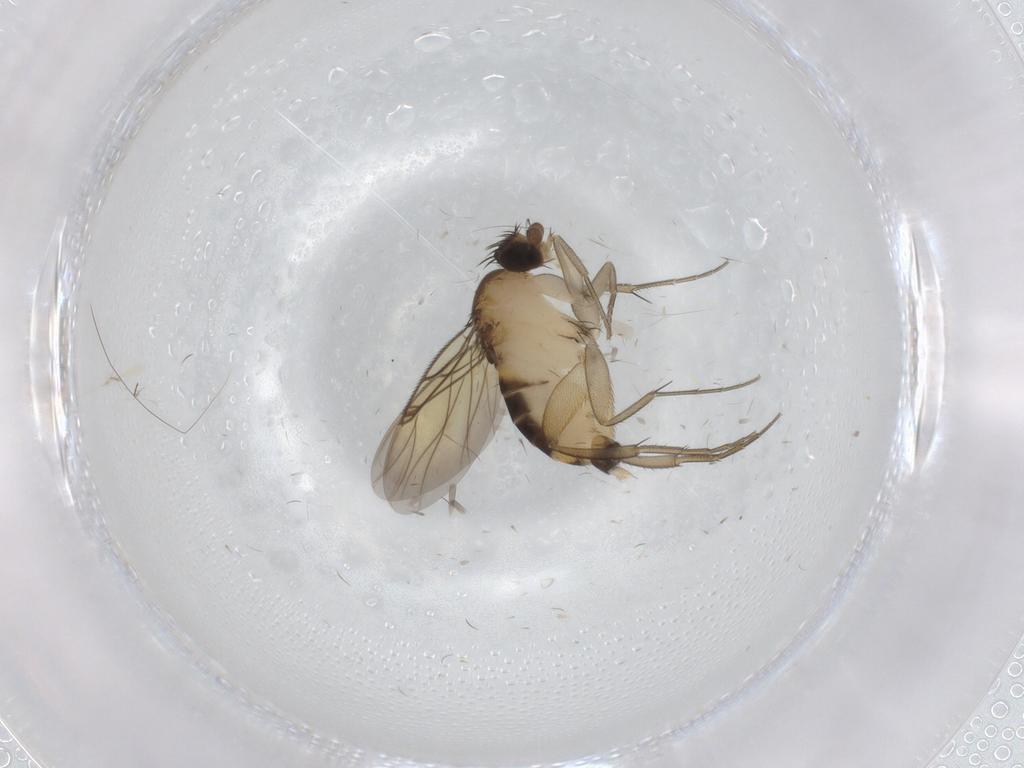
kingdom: Animalia
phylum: Arthropoda
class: Insecta
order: Diptera
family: Phoridae
